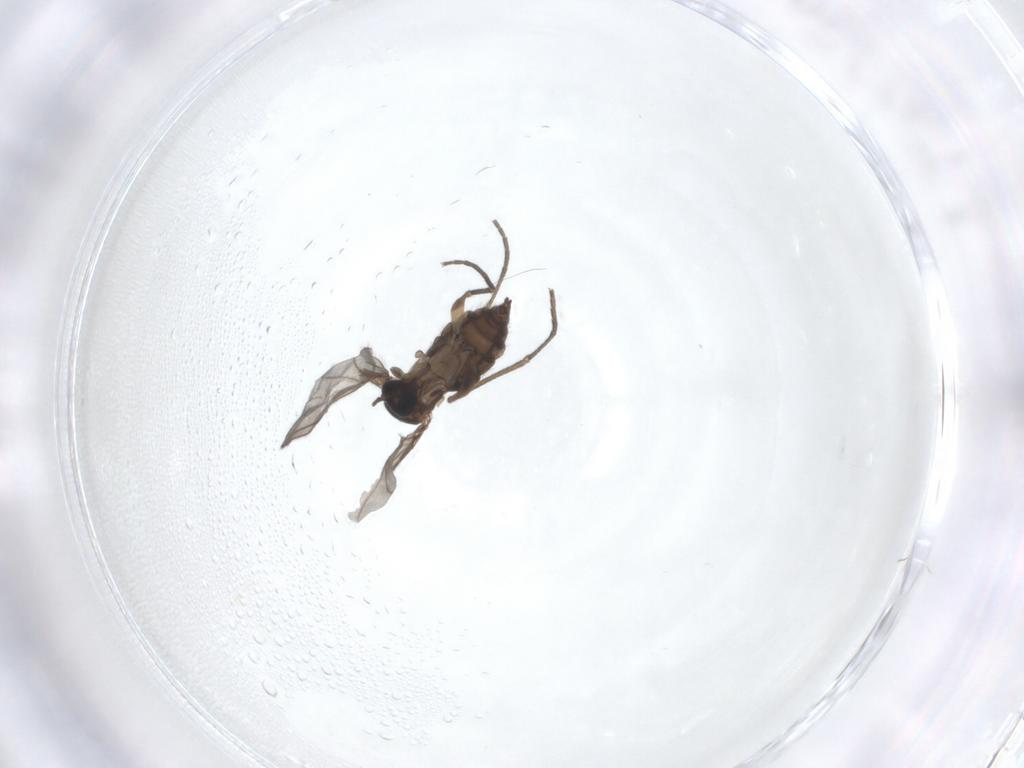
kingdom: Animalia
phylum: Arthropoda
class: Insecta
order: Diptera
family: Sciaridae
